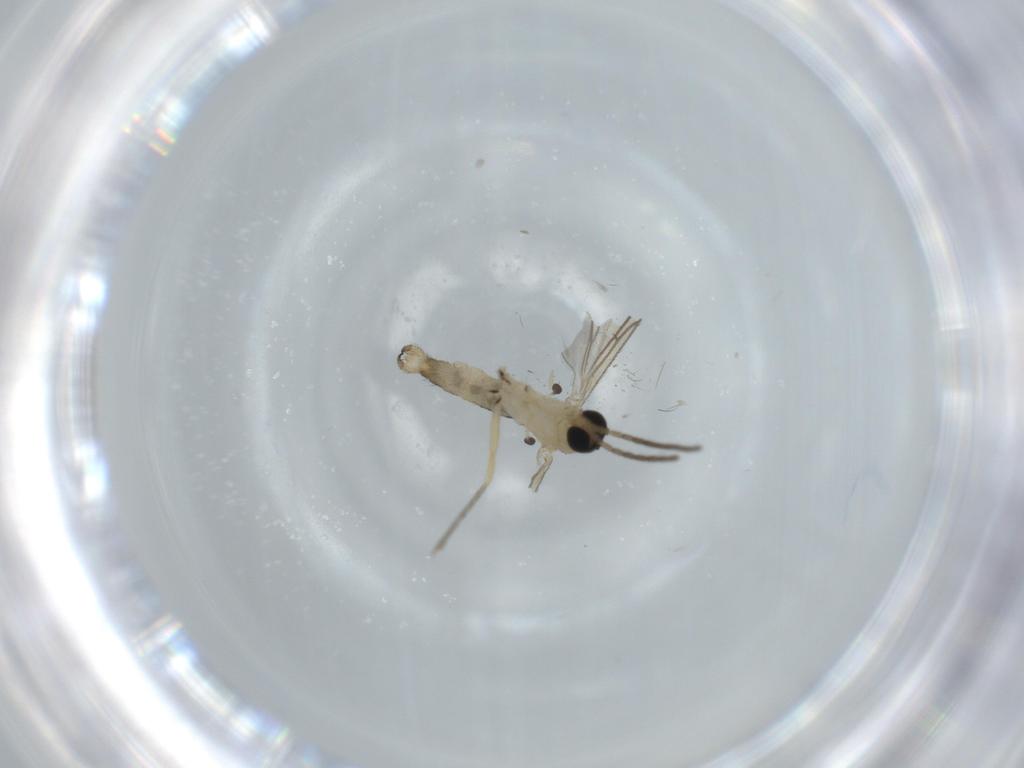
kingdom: Animalia
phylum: Arthropoda
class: Insecta
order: Diptera
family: Sciaridae
